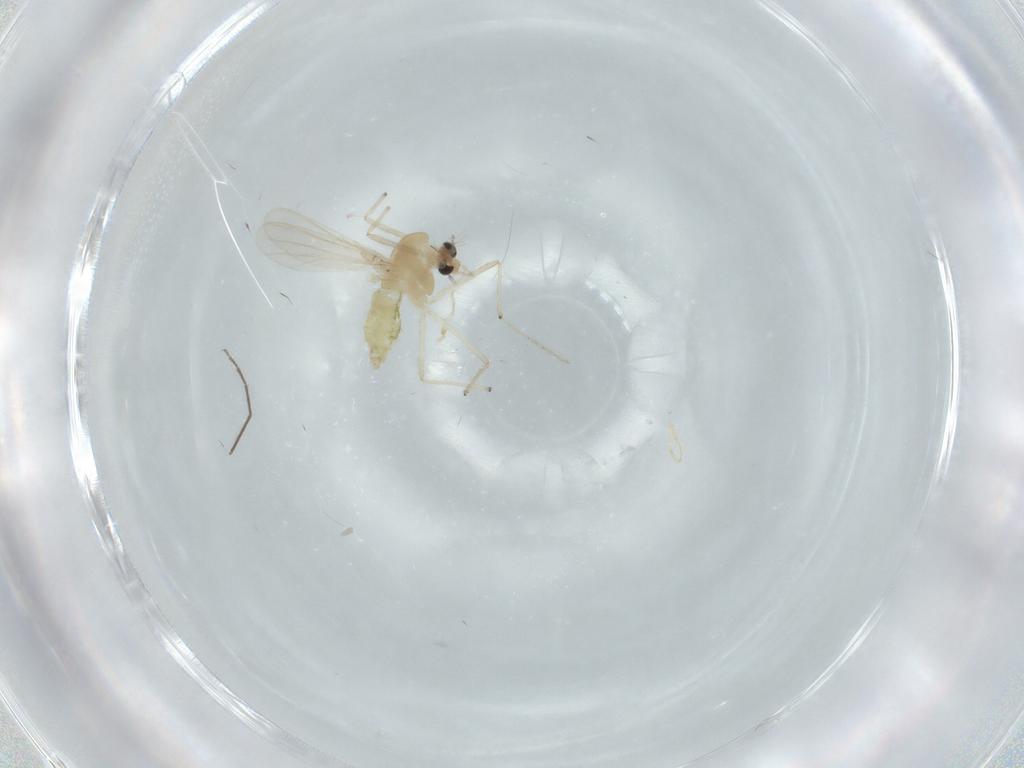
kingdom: Animalia
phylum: Arthropoda
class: Insecta
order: Diptera
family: Chironomidae
